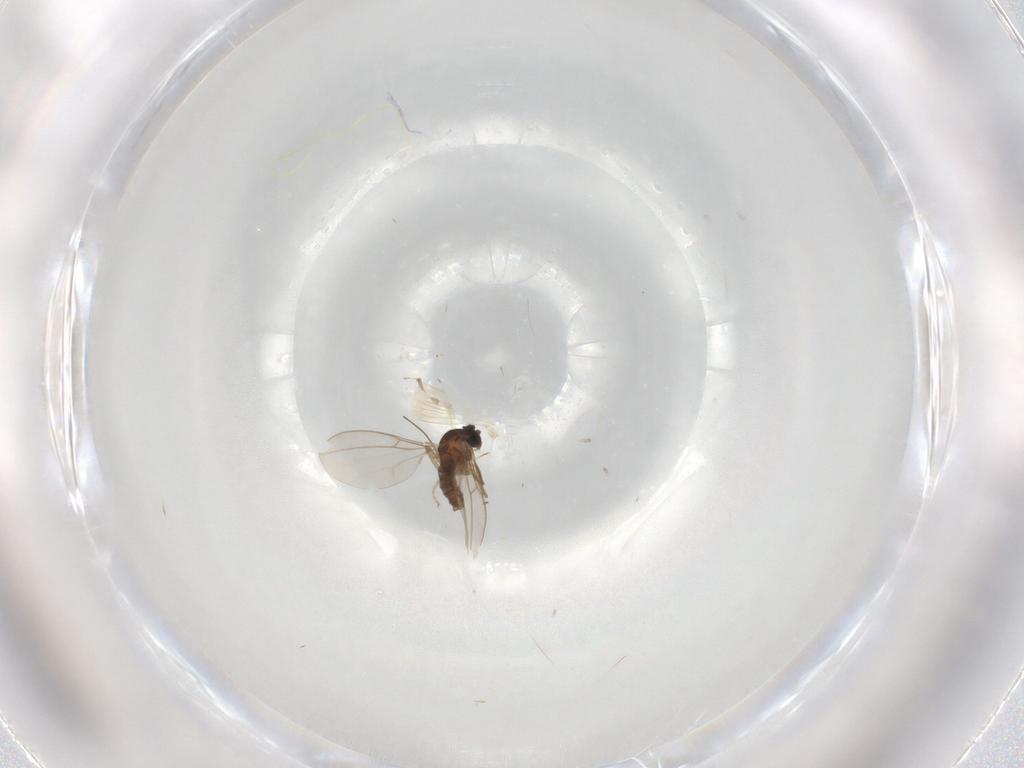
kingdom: Animalia
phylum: Arthropoda
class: Insecta
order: Diptera
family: Cecidomyiidae
